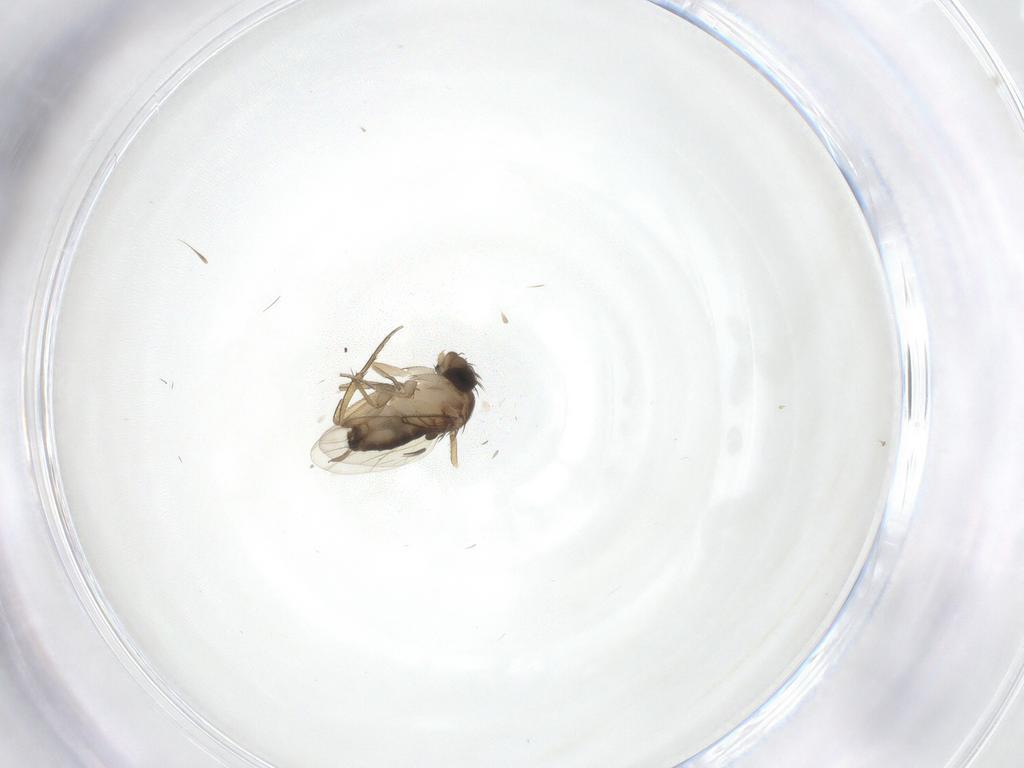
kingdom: Animalia
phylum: Arthropoda
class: Insecta
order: Diptera
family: Phoridae
